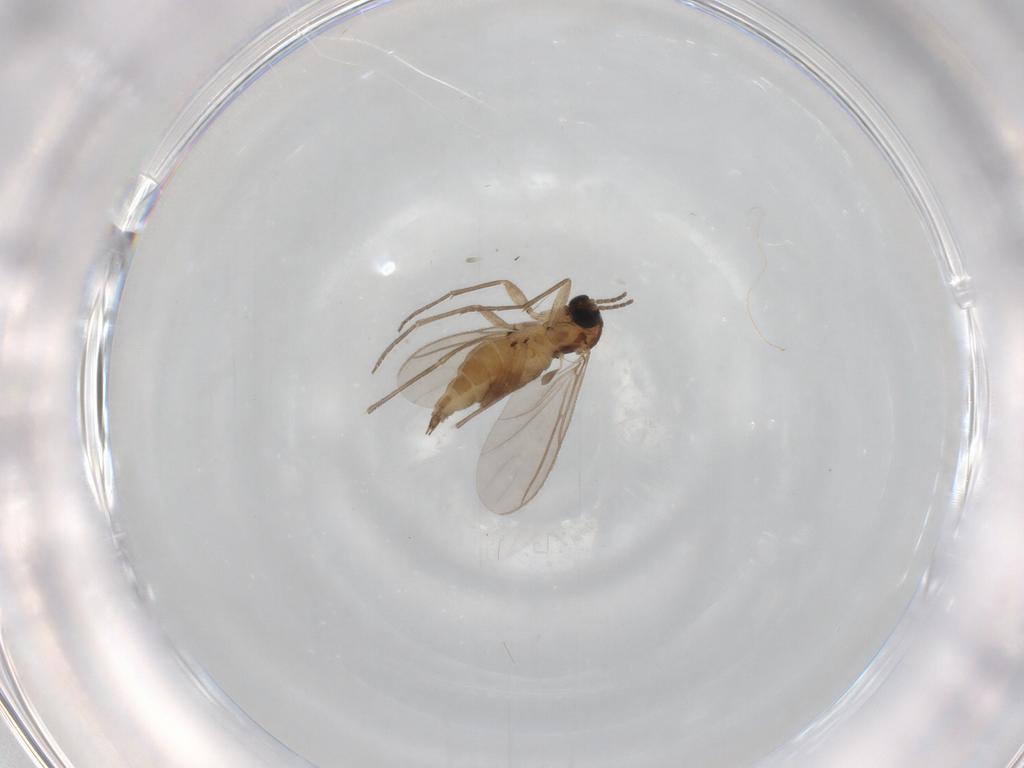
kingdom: Animalia
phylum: Arthropoda
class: Insecta
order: Diptera
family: Sciaridae
